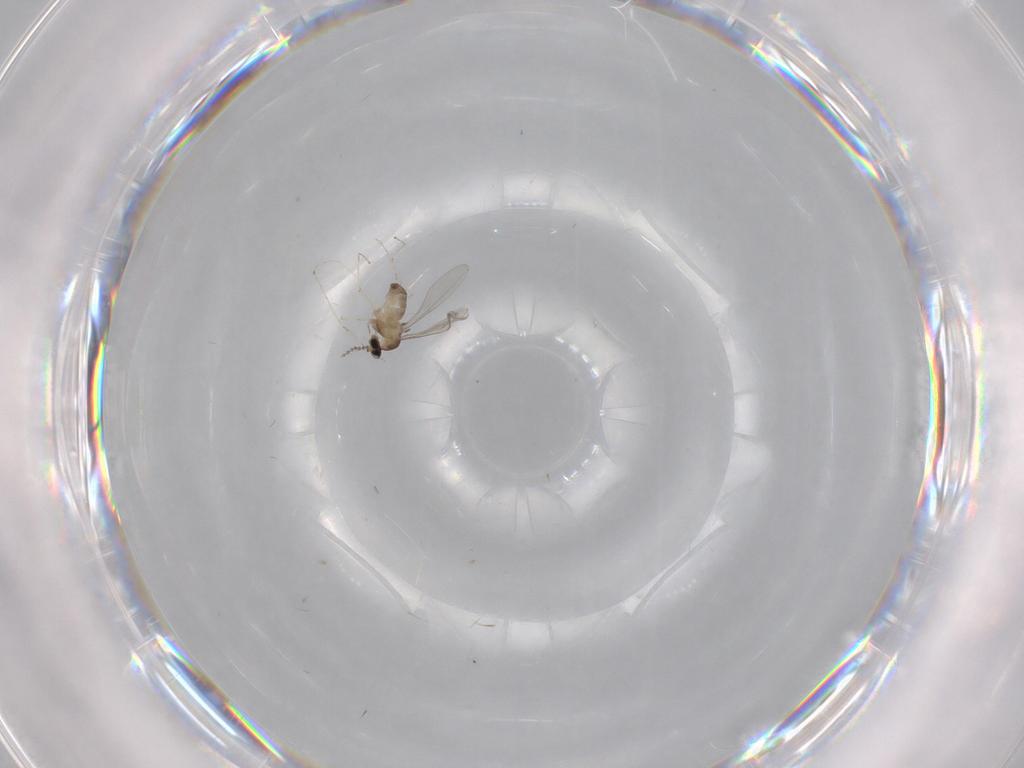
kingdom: Animalia
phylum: Arthropoda
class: Insecta
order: Diptera
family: Cecidomyiidae
